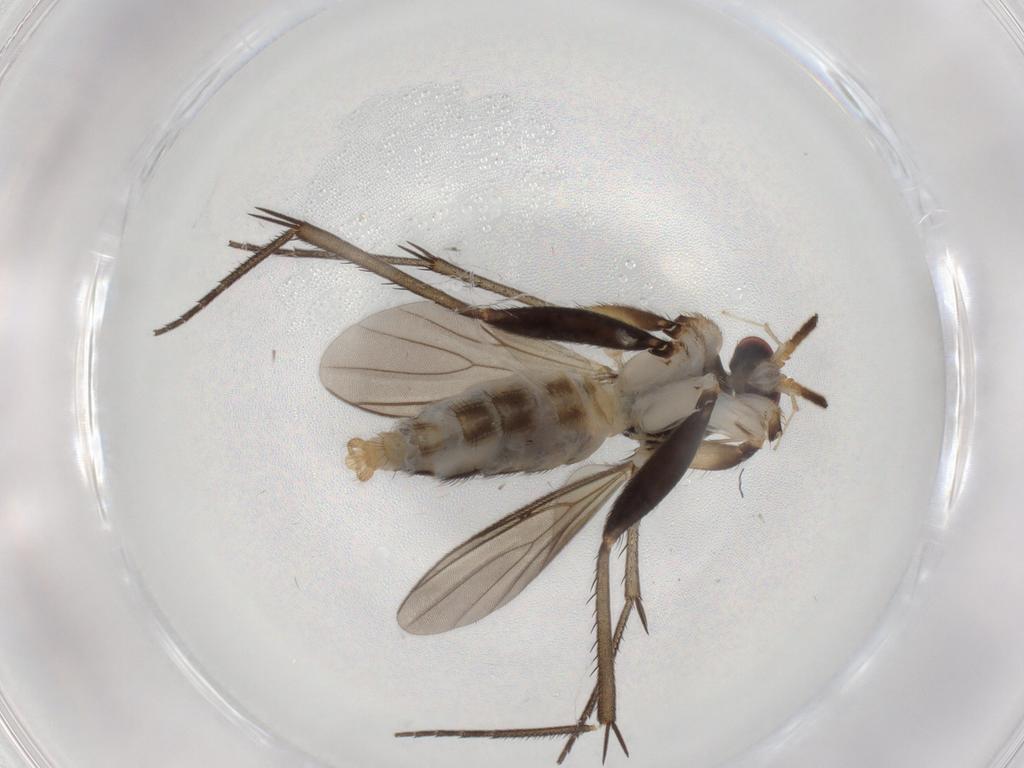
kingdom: Animalia
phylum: Arthropoda
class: Insecta
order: Diptera
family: Mycetophilidae
